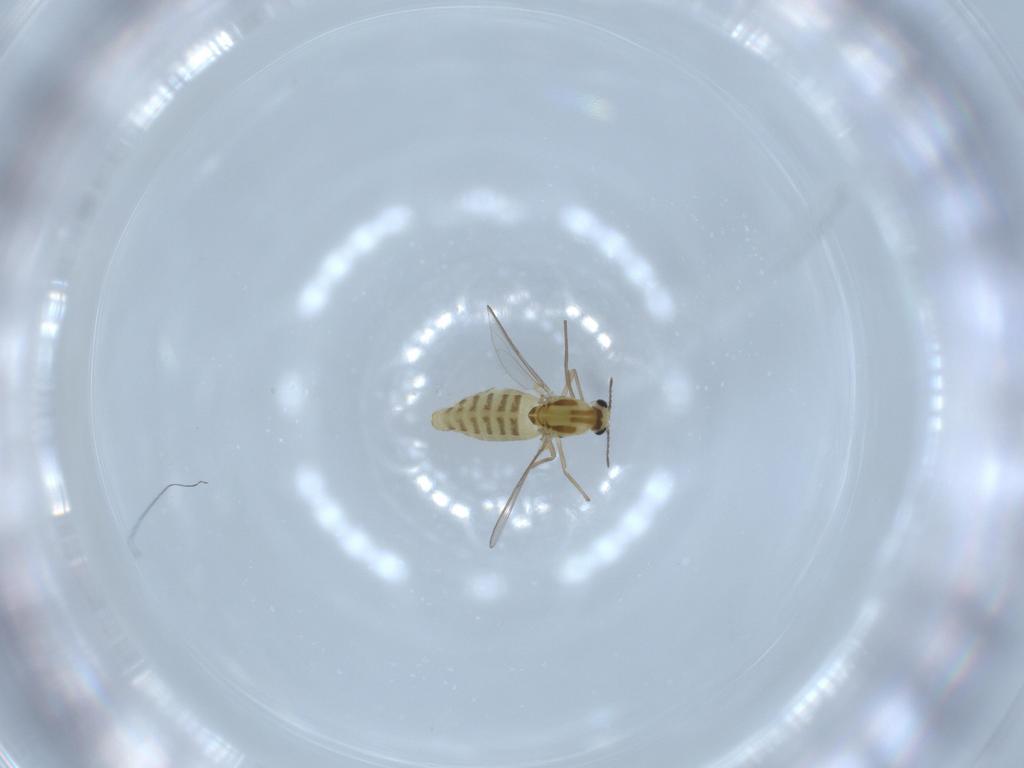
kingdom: Animalia
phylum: Arthropoda
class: Insecta
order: Diptera
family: Chironomidae
